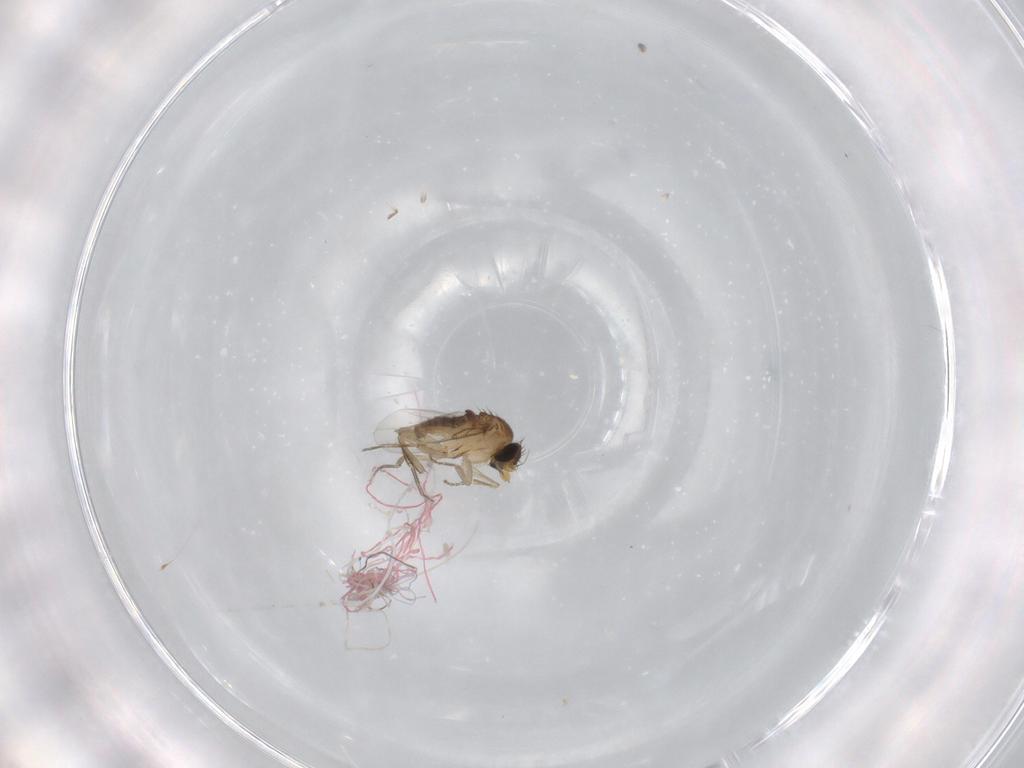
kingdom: Animalia
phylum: Arthropoda
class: Insecta
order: Diptera
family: Phoridae
